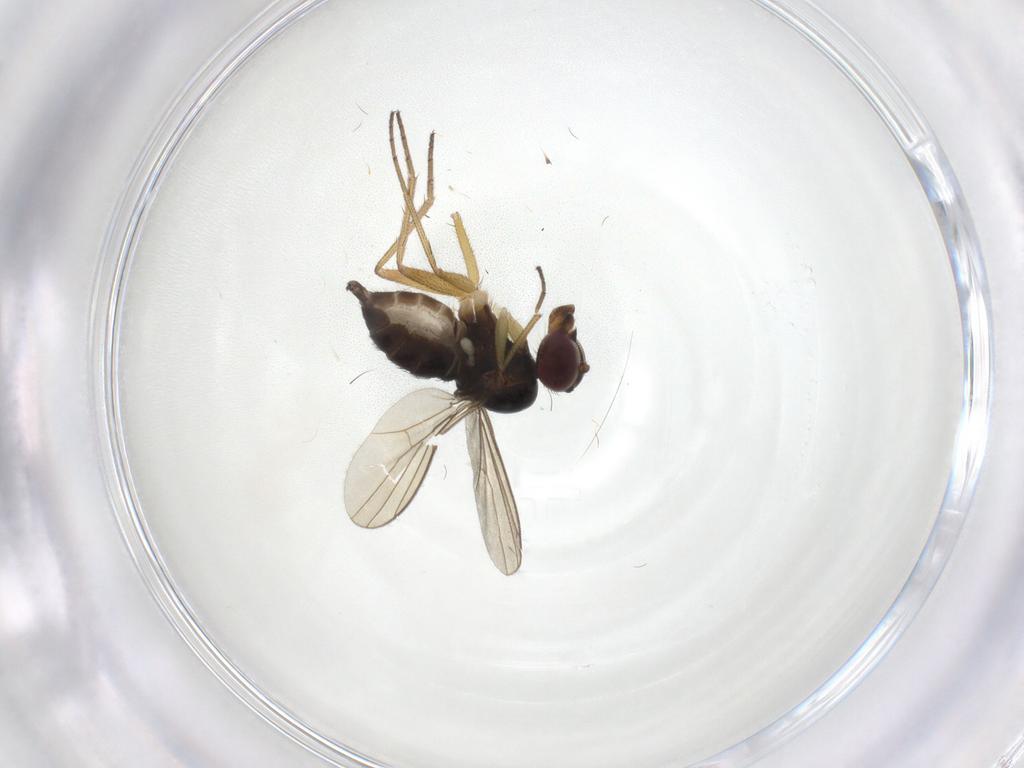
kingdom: Animalia
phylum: Arthropoda
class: Insecta
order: Diptera
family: Dolichopodidae
